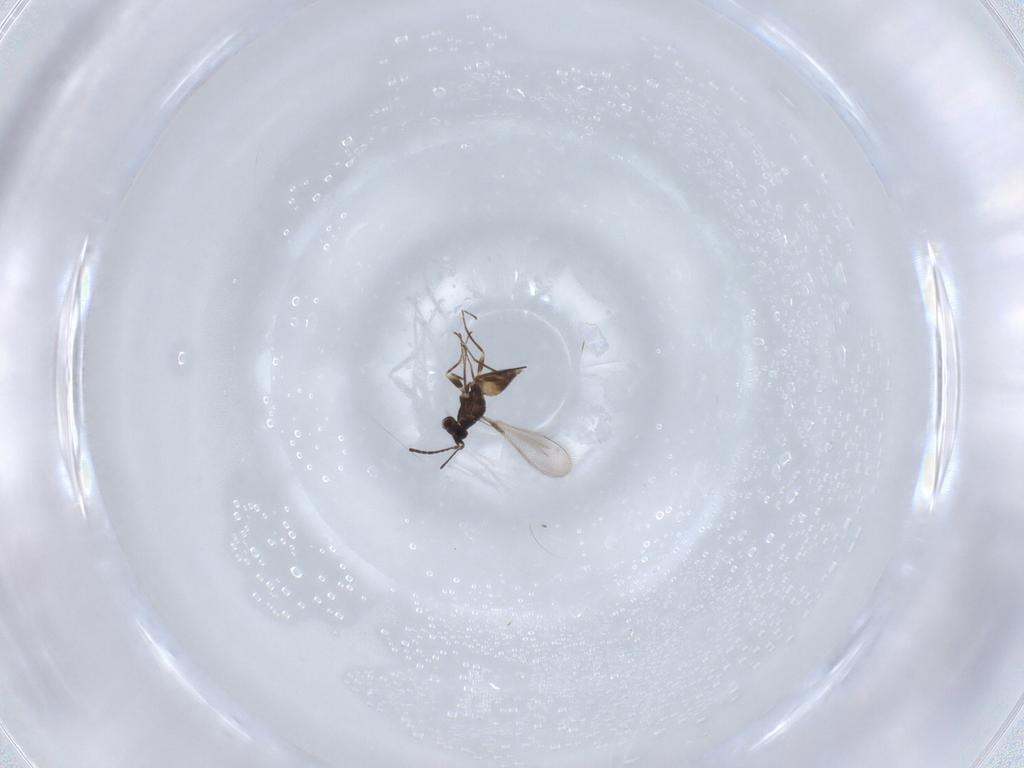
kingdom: Animalia
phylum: Arthropoda
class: Insecta
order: Hymenoptera
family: Mymaridae
